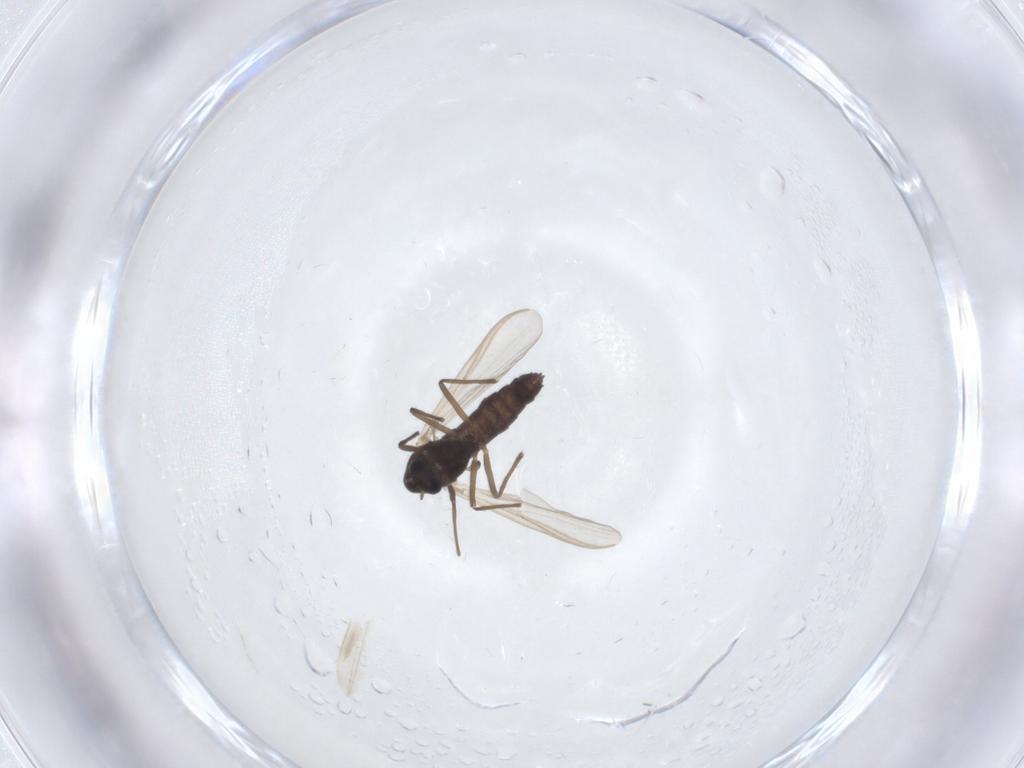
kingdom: Animalia
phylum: Arthropoda
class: Insecta
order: Diptera
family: Chironomidae
